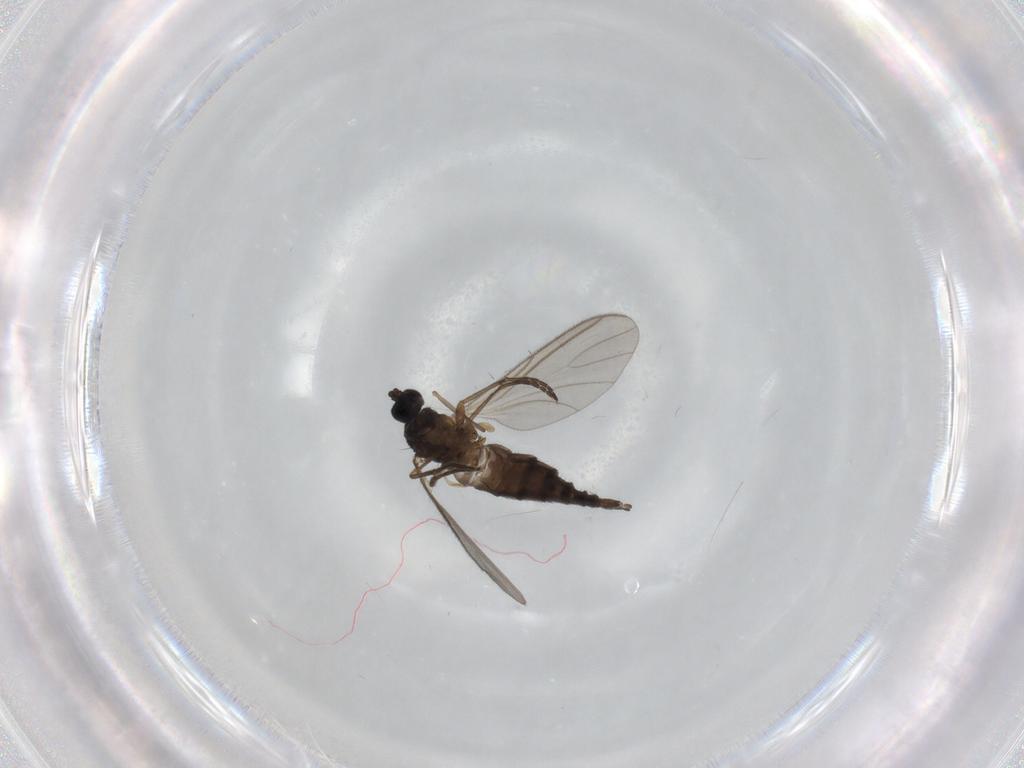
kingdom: Animalia
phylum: Arthropoda
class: Insecta
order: Diptera
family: Sciaridae
